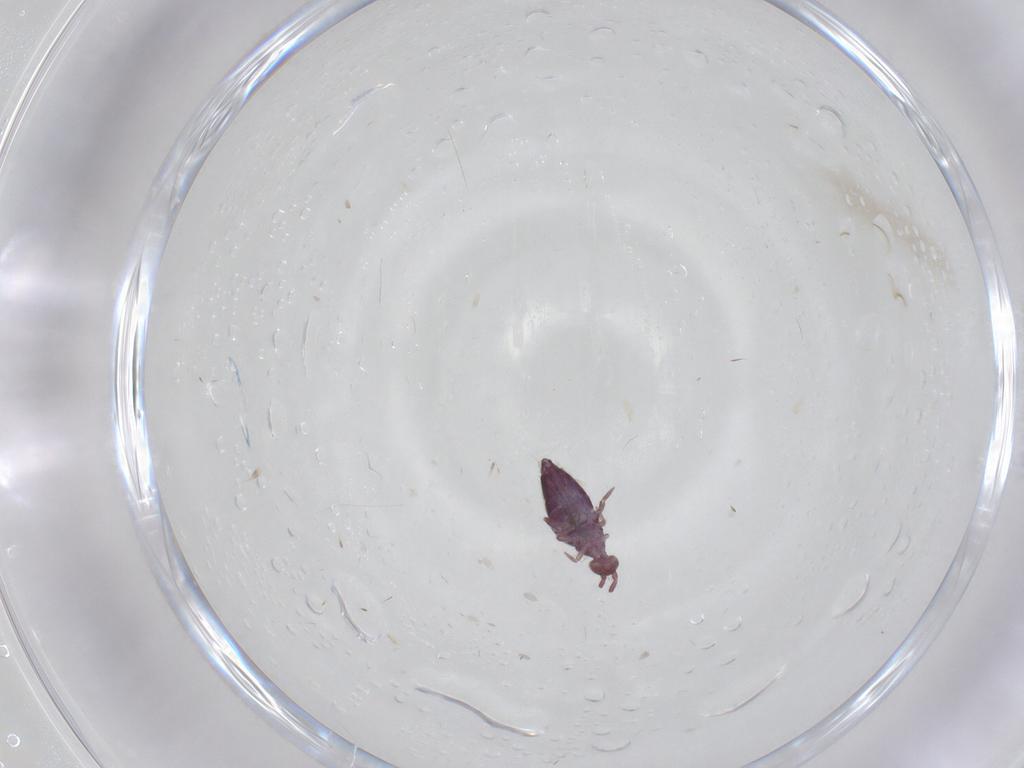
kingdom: Animalia
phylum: Arthropoda
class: Collembola
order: Entomobryomorpha
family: Entomobryidae
